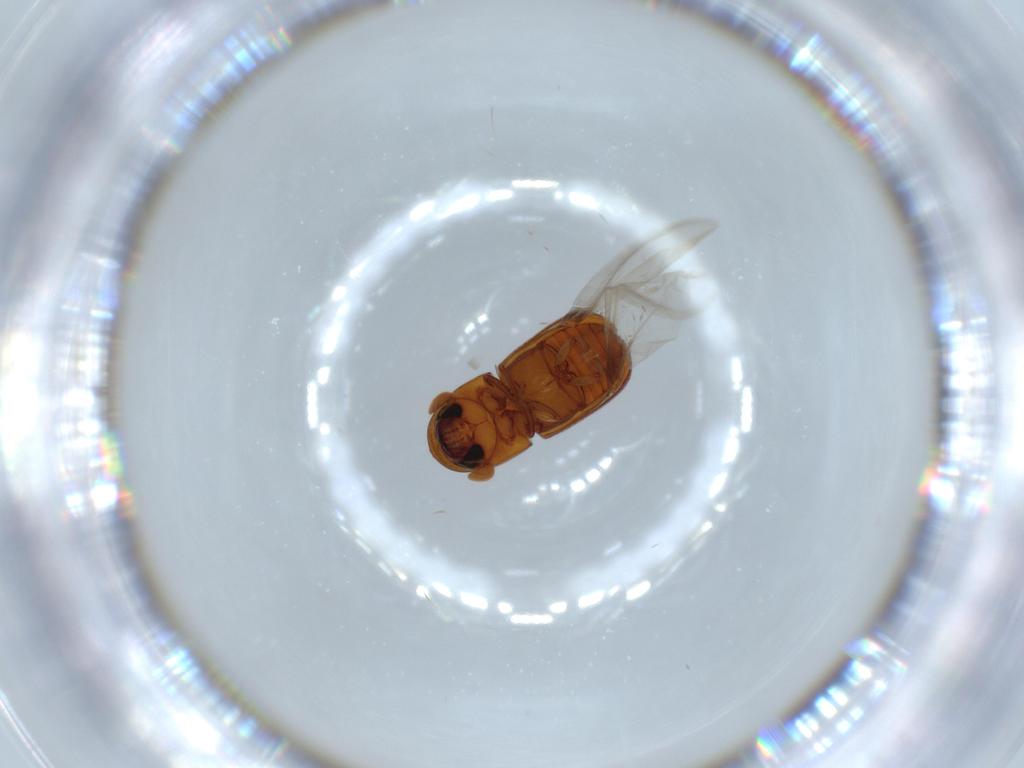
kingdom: Animalia
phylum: Arthropoda
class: Insecta
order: Coleoptera
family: Curculionidae
